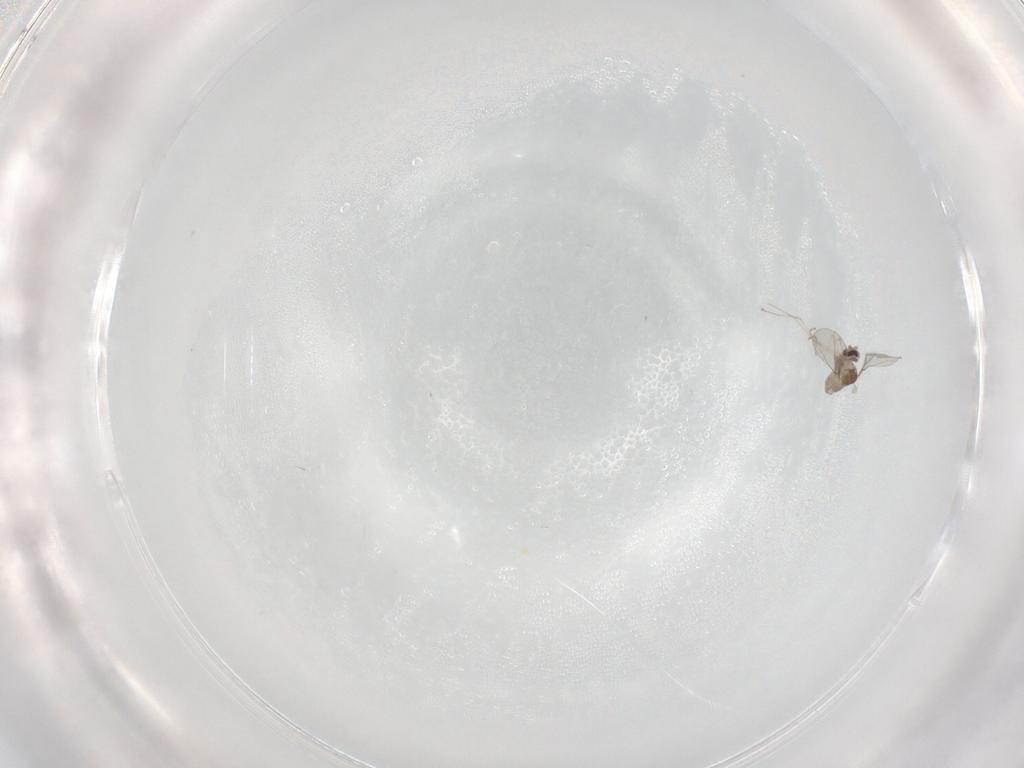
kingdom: Animalia
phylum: Arthropoda
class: Insecta
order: Diptera
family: Cecidomyiidae
